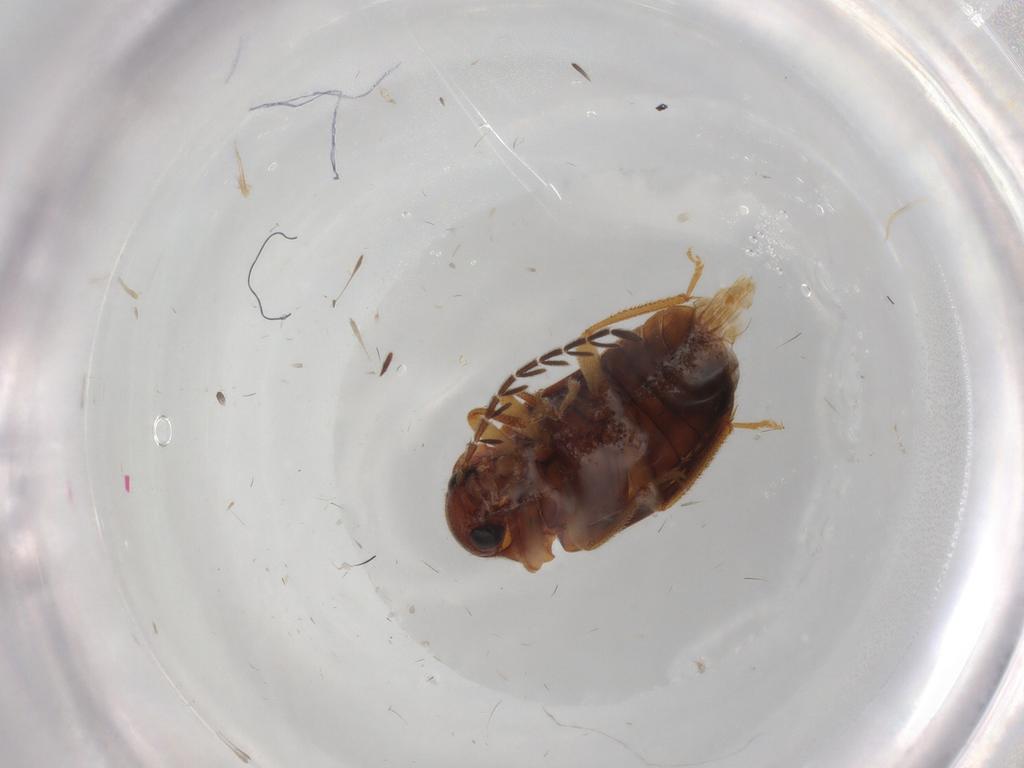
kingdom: Animalia
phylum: Arthropoda
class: Insecta
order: Coleoptera
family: Ptilodactylidae
